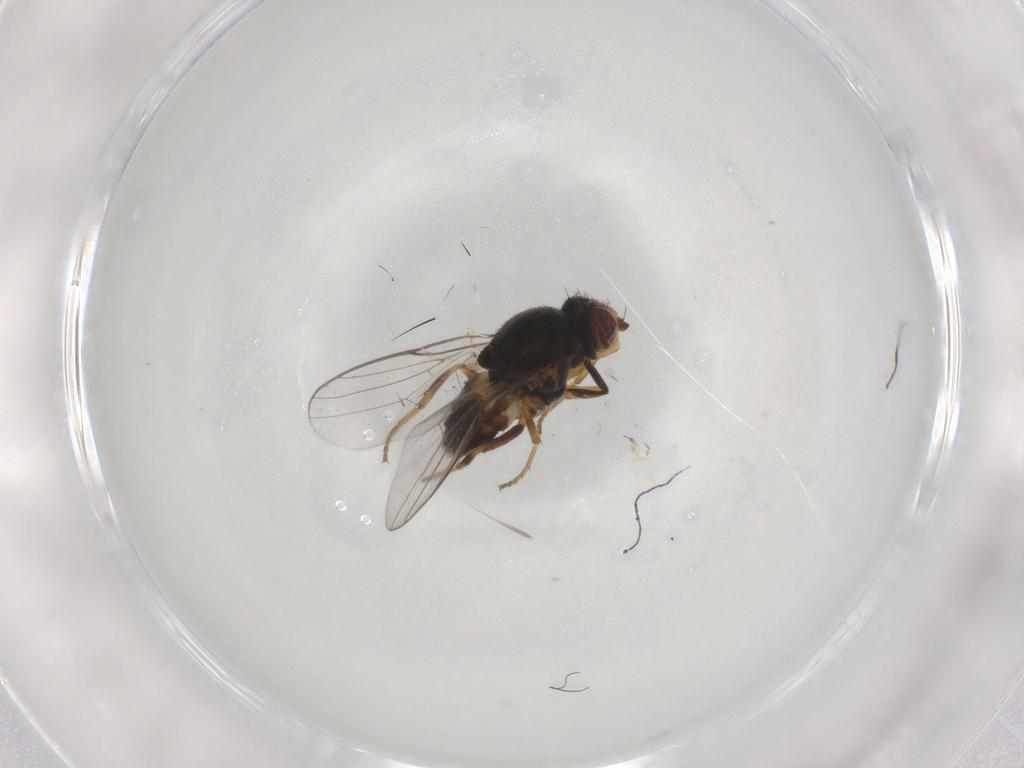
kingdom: Animalia
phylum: Arthropoda
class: Insecta
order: Diptera
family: Chloropidae
